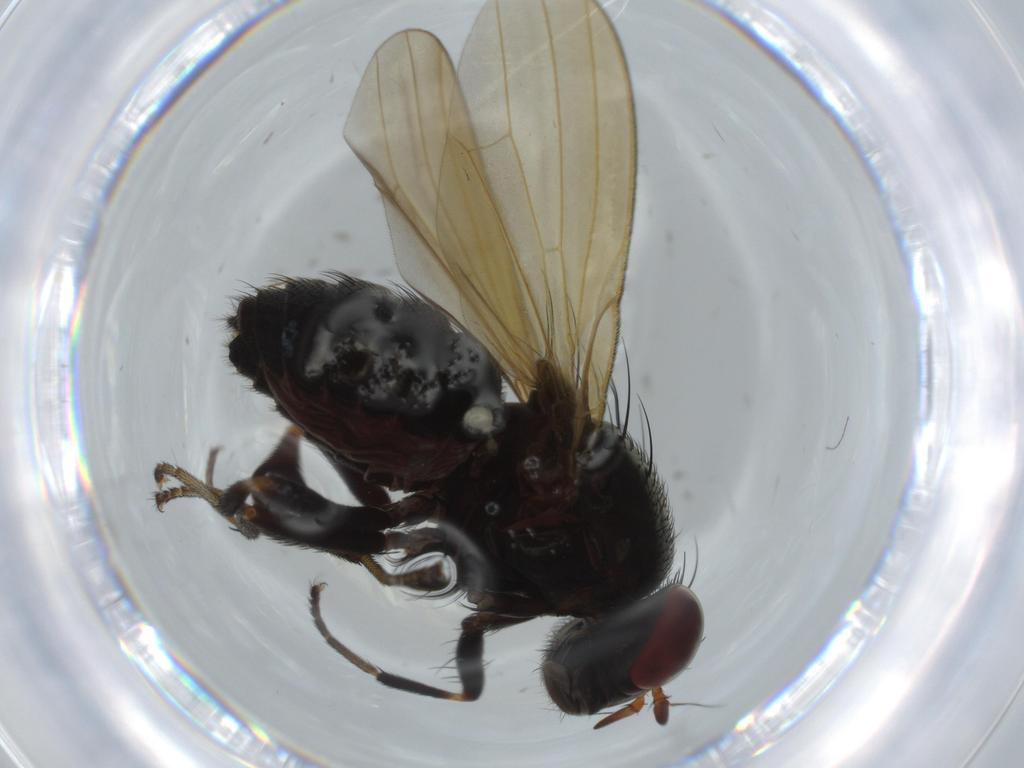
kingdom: Animalia
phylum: Arthropoda
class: Insecta
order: Diptera
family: Lauxaniidae
